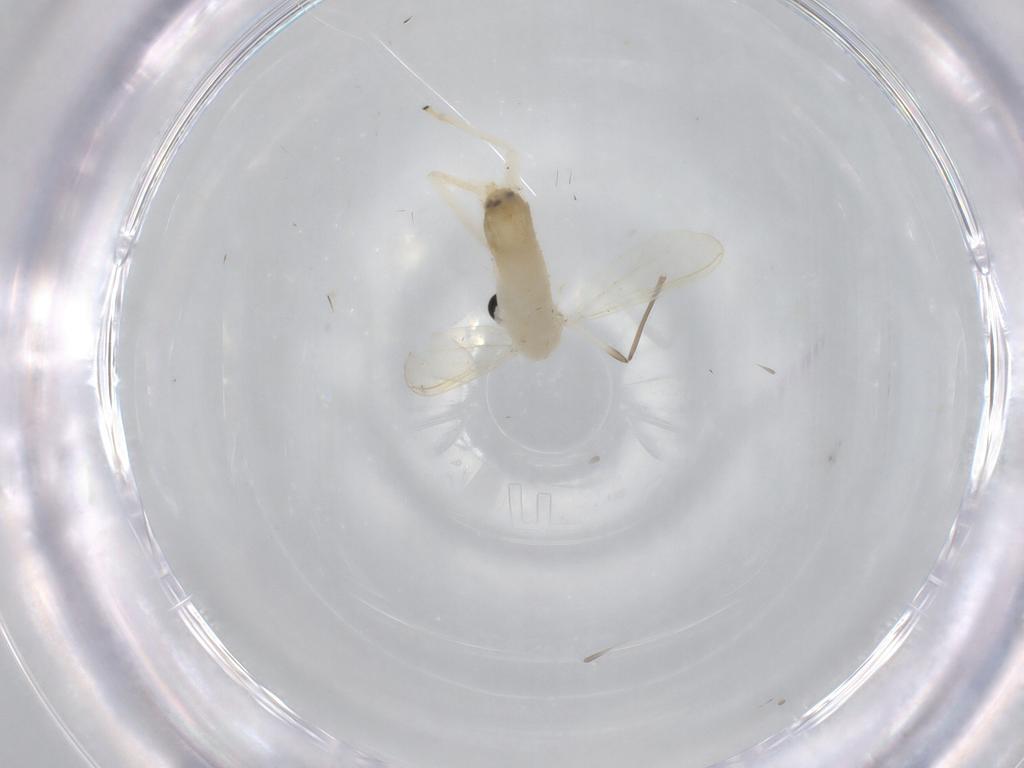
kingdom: Animalia
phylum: Arthropoda
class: Insecta
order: Diptera
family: Chironomidae
